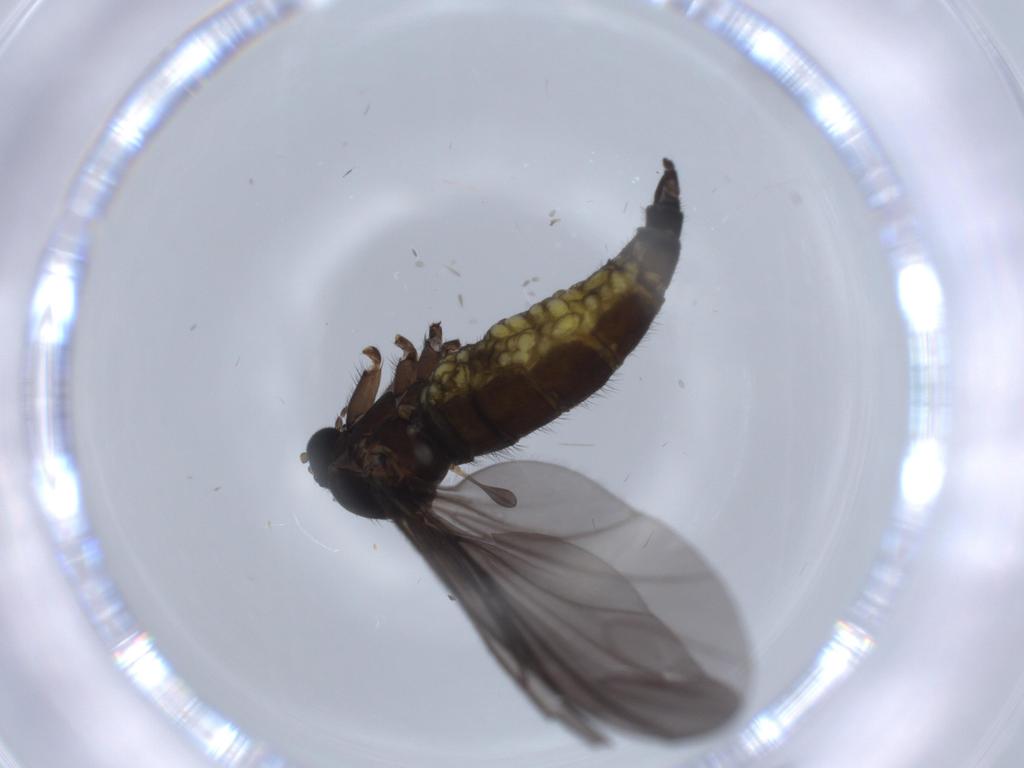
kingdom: Animalia
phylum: Arthropoda
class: Insecta
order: Diptera
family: Sciaridae
